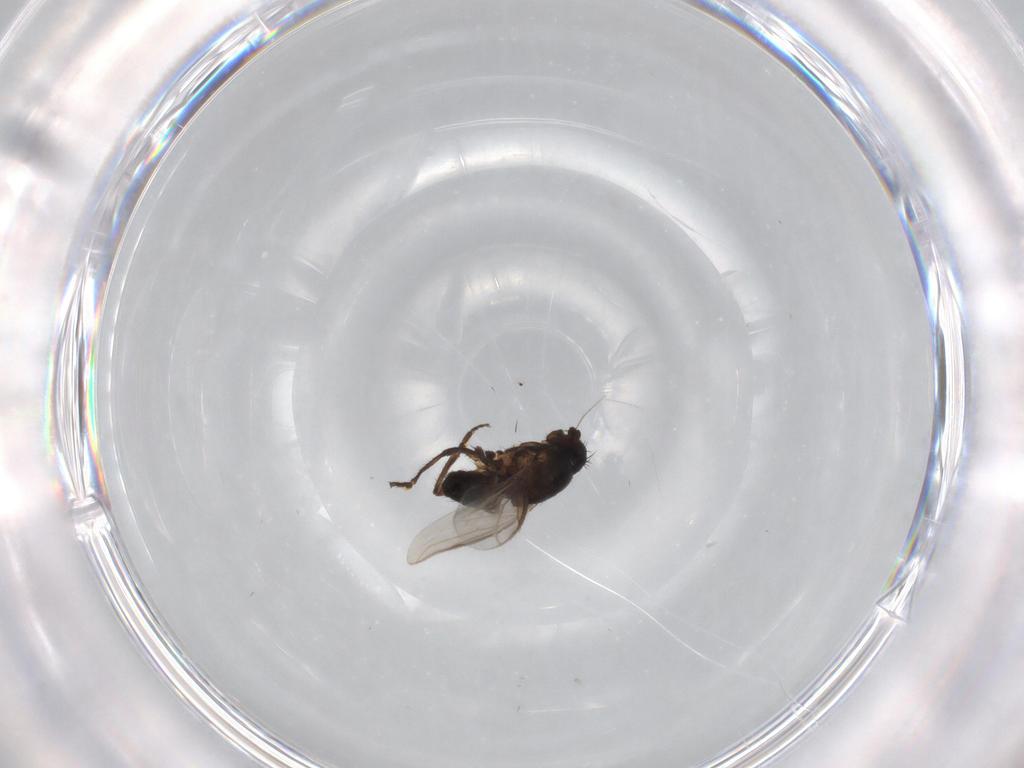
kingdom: Animalia
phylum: Arthropoda
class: Insecta
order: Diptera
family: Sphaeroceridae
